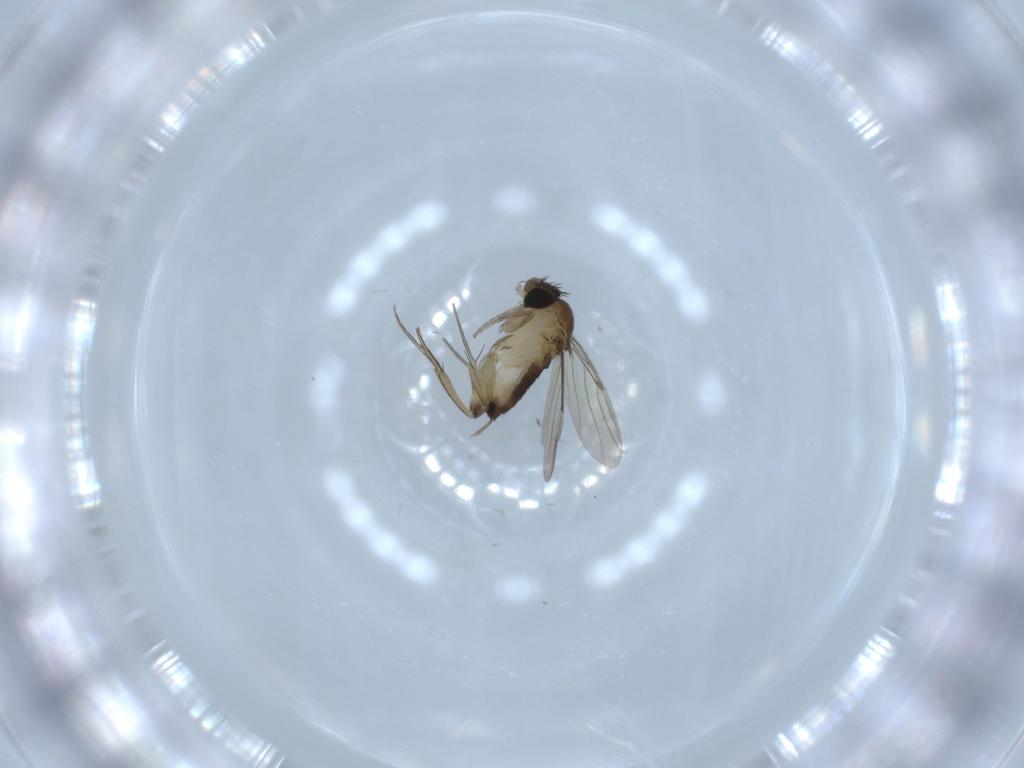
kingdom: Animalia
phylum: Arthropoda
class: Insecta
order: Diptera
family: Phoridae
